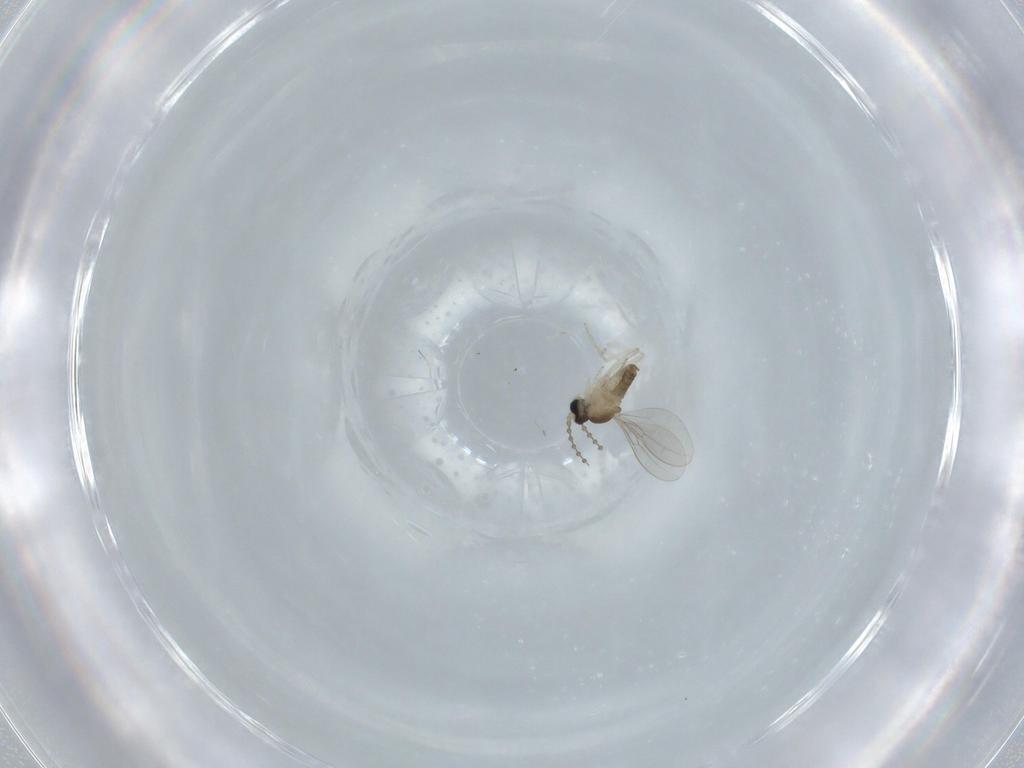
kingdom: Animalia
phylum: Arthropoda
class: Insecta
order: Diptera
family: Cecidomyiidae
